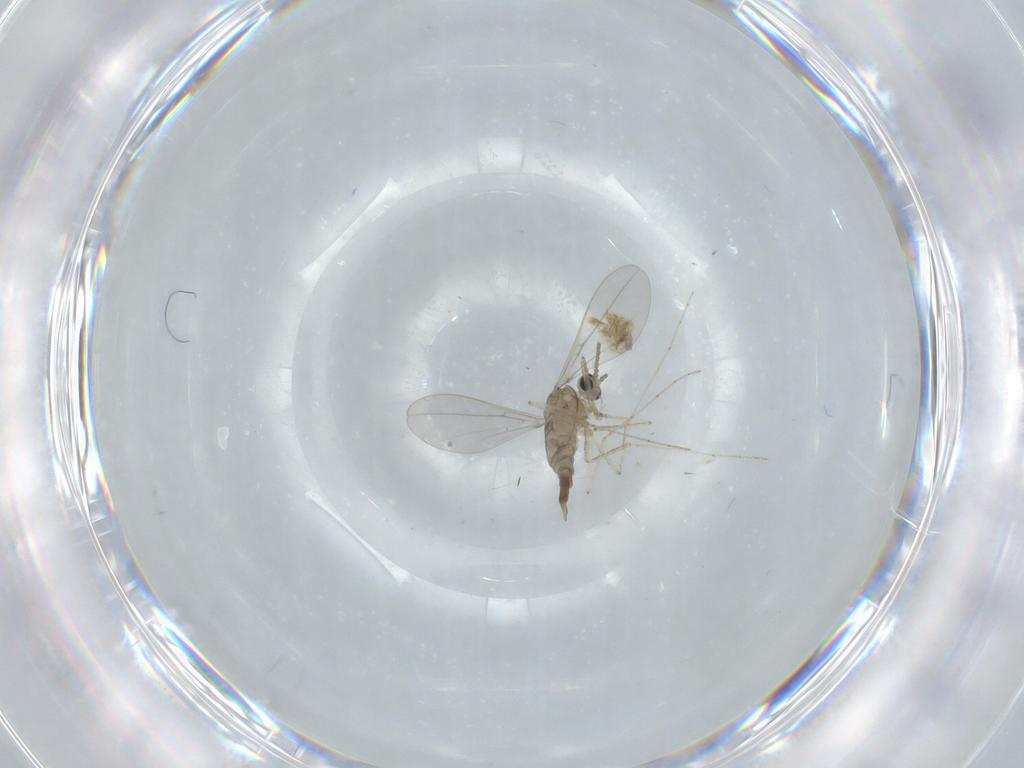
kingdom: Animalia
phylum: Arthropoda
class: Insecta
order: Diptera
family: Cecidomyiidae
